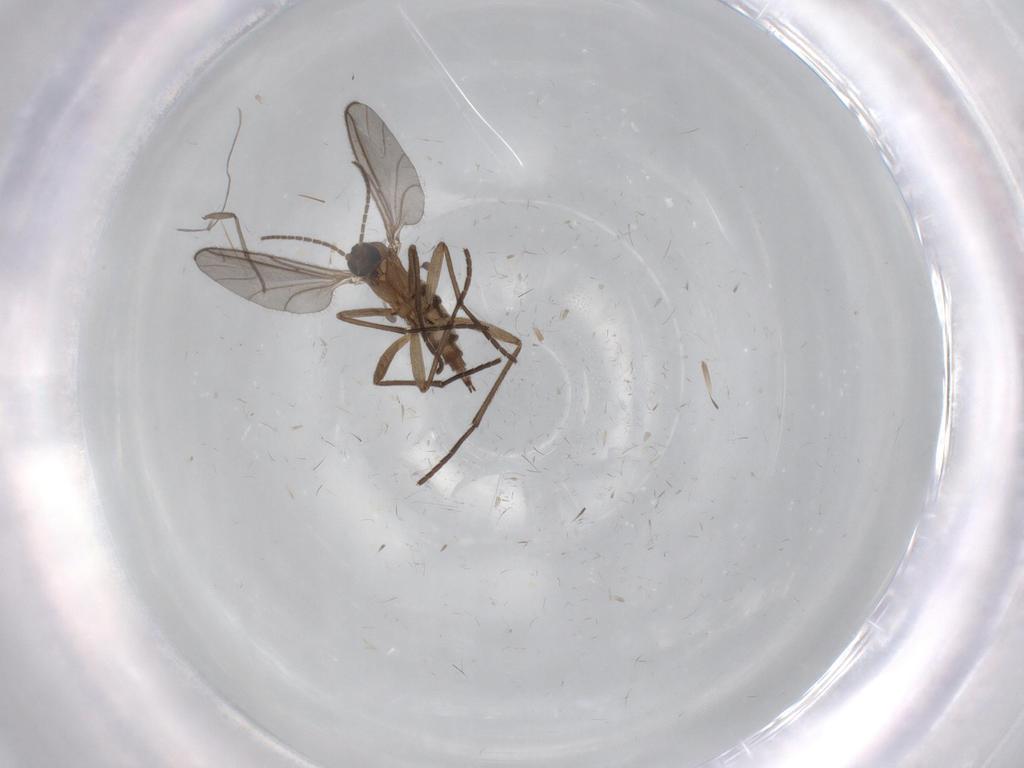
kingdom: Animalia
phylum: Arthropoda
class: Insecta
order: Diptera
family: Sciaridae
